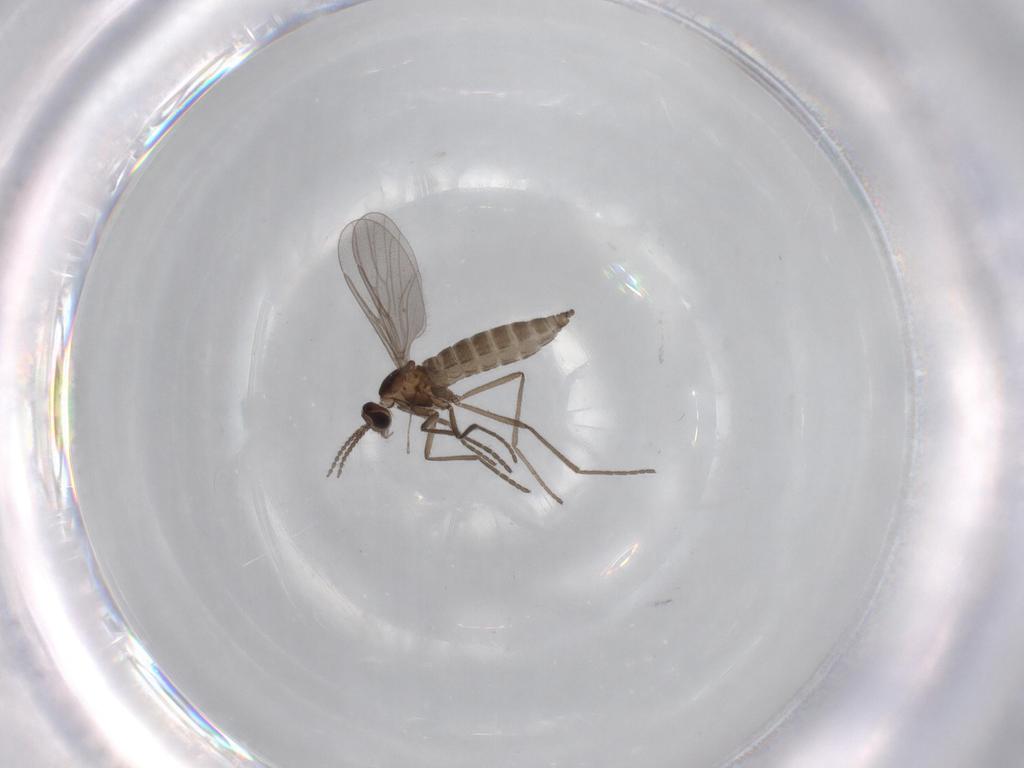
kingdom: Animalia
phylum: Arthropoda
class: Insecta
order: Diptera
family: Cecidomyiidae
